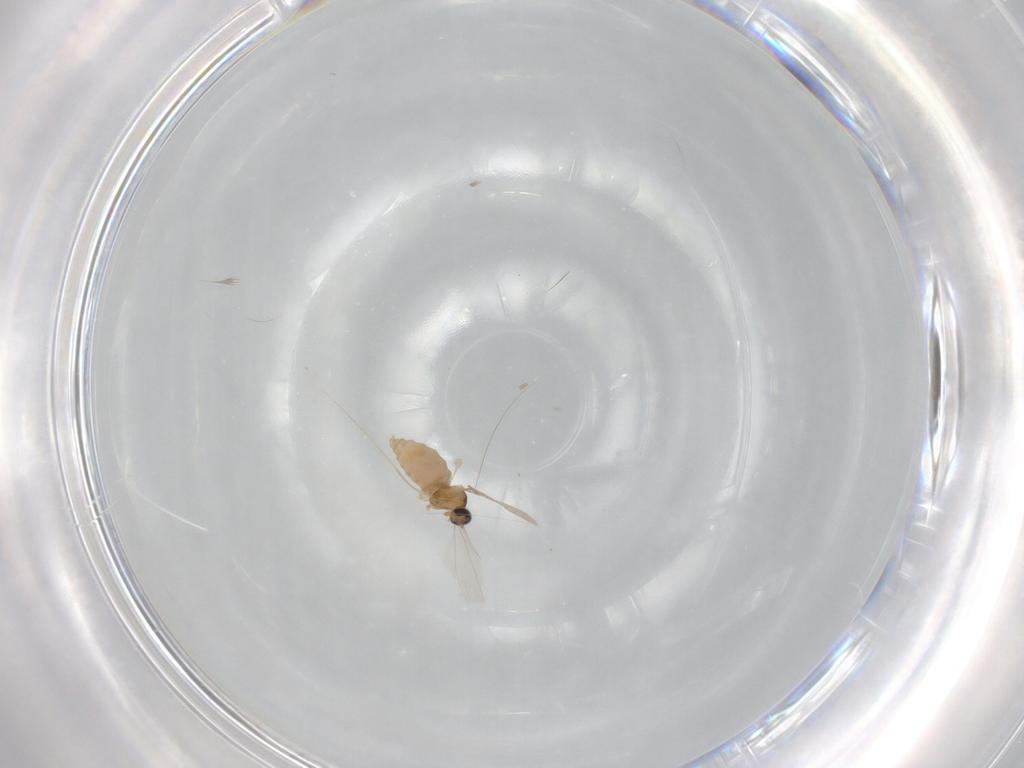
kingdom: Animalia
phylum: Arthropoda
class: Insecta
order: Diptera
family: Cecidomyiidae
